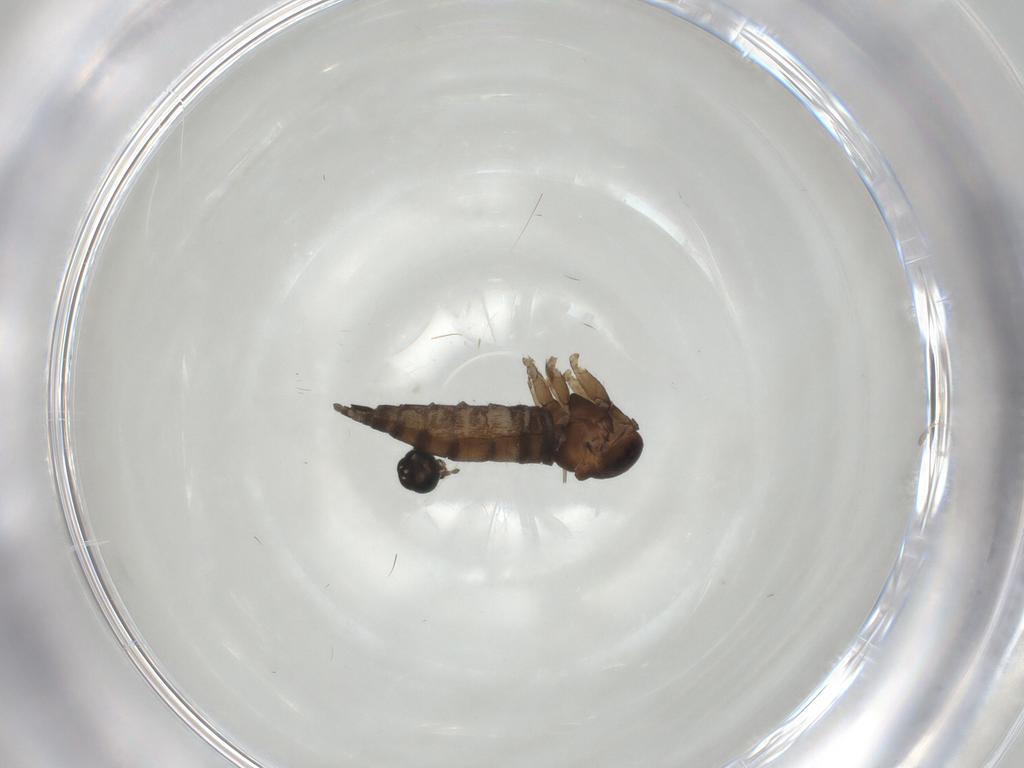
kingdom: Animalia
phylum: Arthropoda
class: Insecta
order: Diptera
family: Sciaridae
